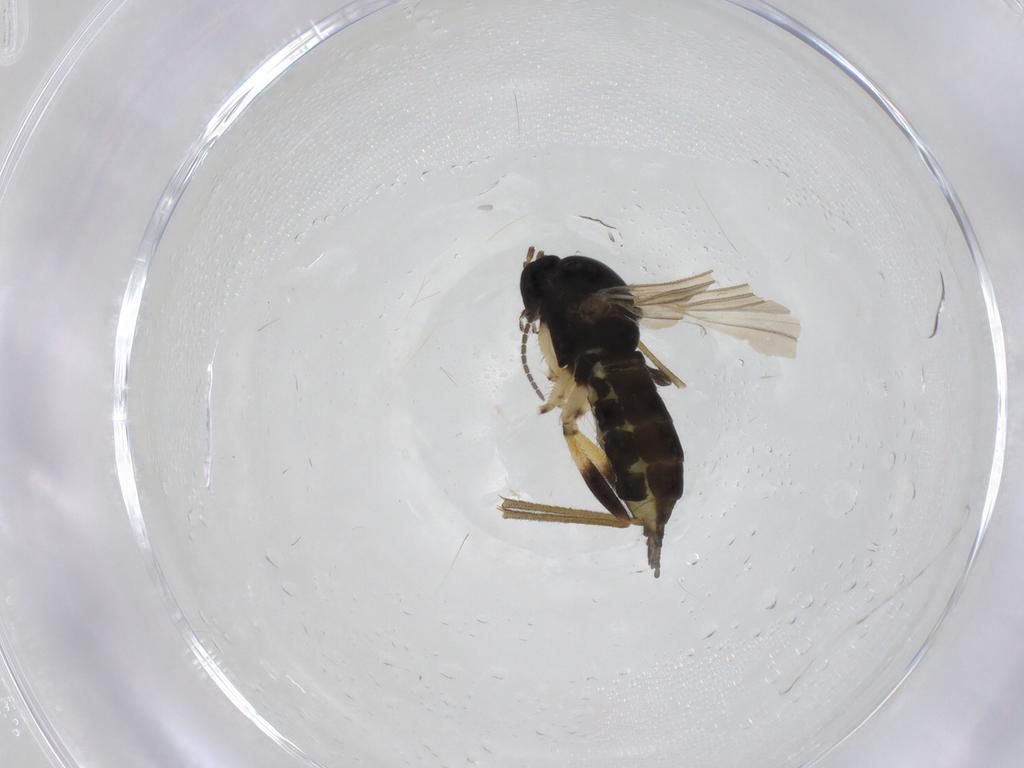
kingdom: Animalia
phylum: Arthropoda
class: Insecta
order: Diptera
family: Sciaridae
